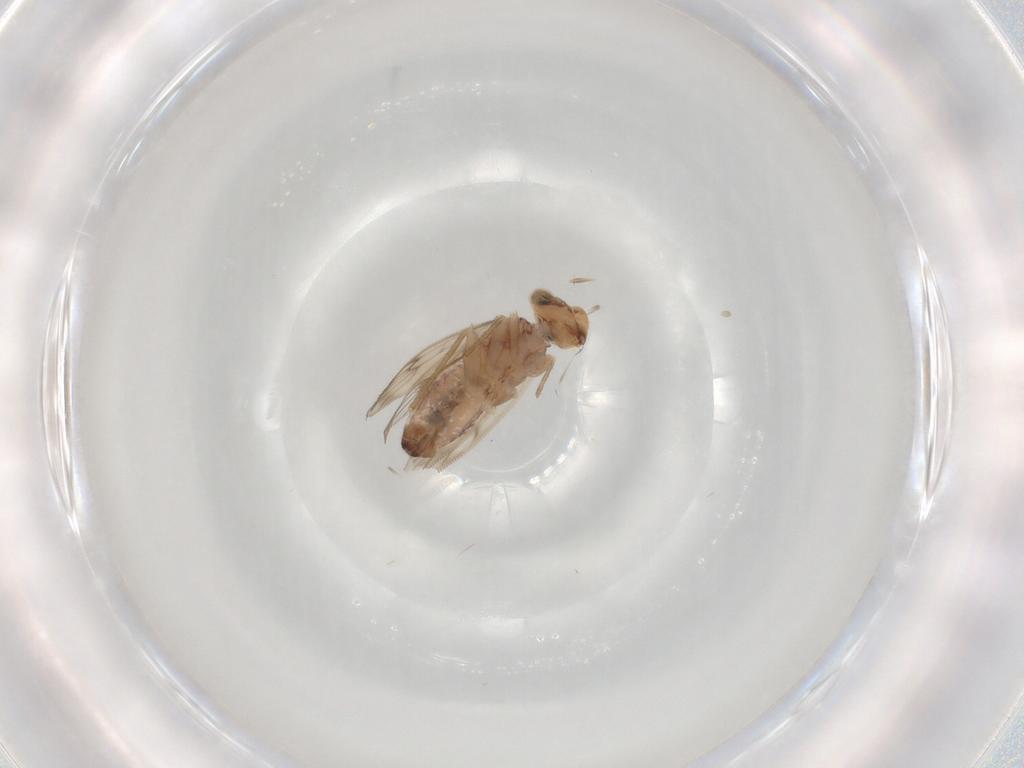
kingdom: Animalia
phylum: Arthropoda
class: Insecta
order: Psocodea
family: Lepidopsocidae
